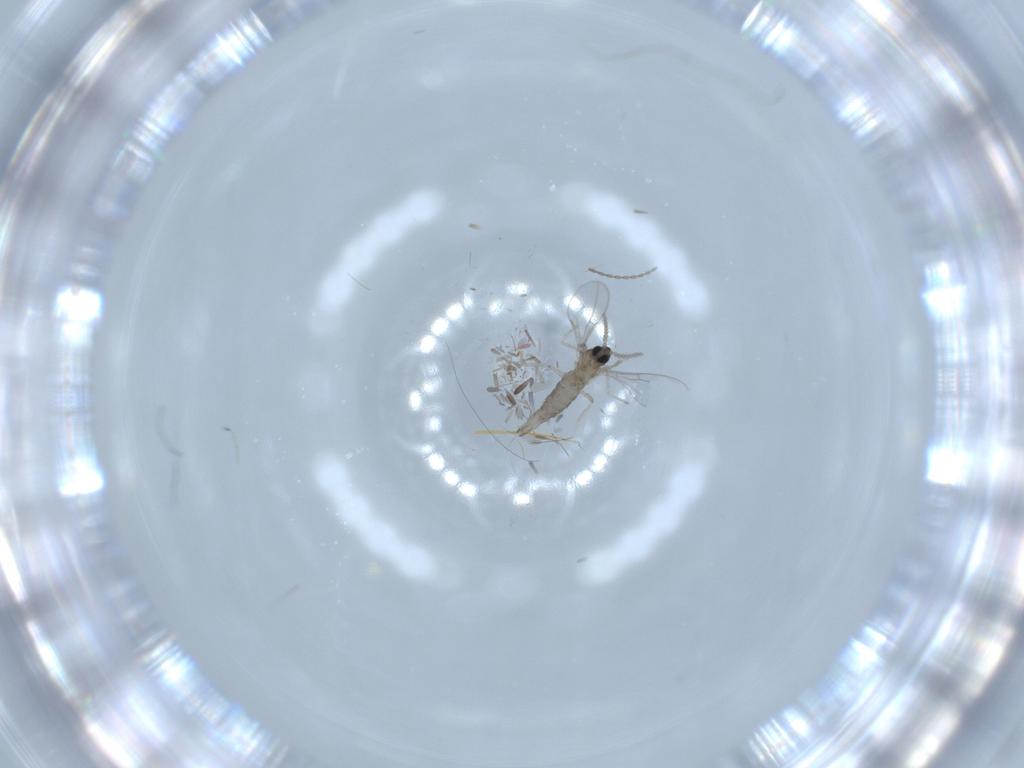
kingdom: Animalia
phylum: Arthropoda
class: Insecta
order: Diptera
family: Cecidomyiidae
